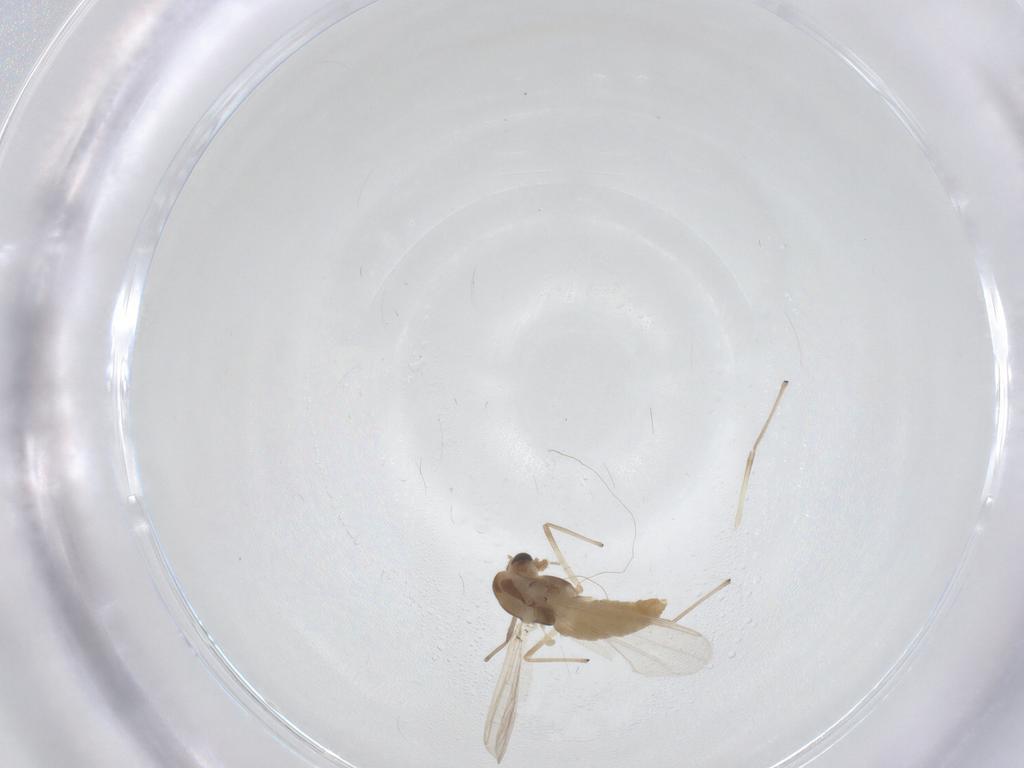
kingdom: Animalia
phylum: Arthropoda
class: Insecta
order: Diptera
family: Chironomidae
